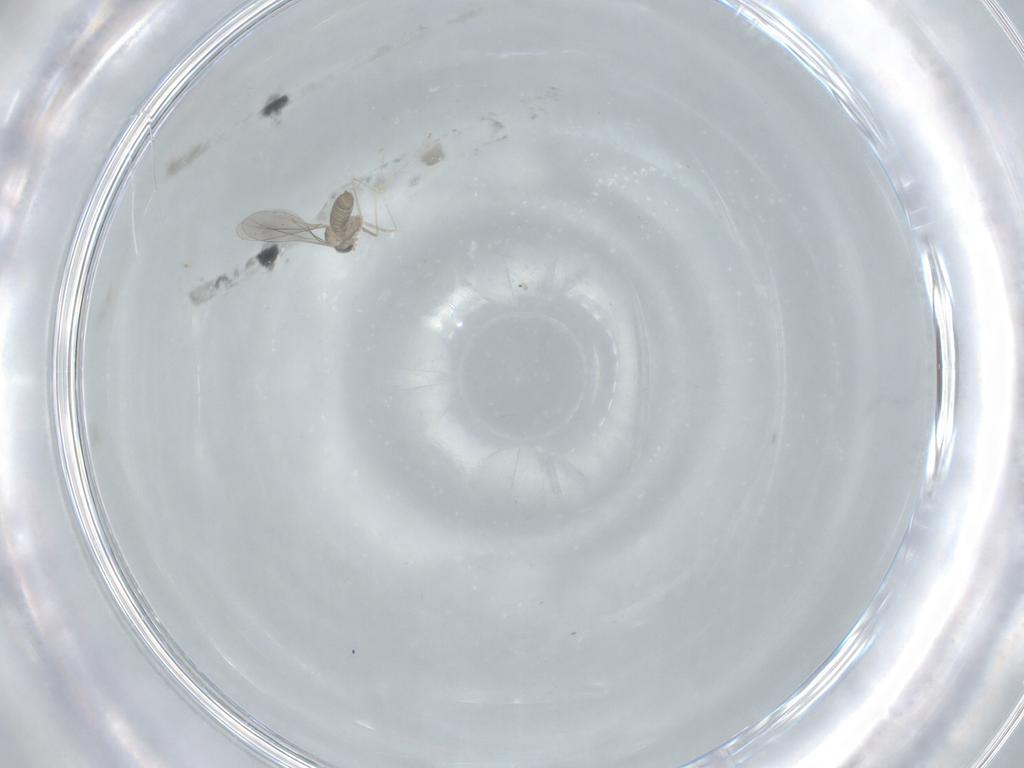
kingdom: Animalia
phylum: Arthropoda
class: Insecta
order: Diptera
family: Cecidomyiidae
